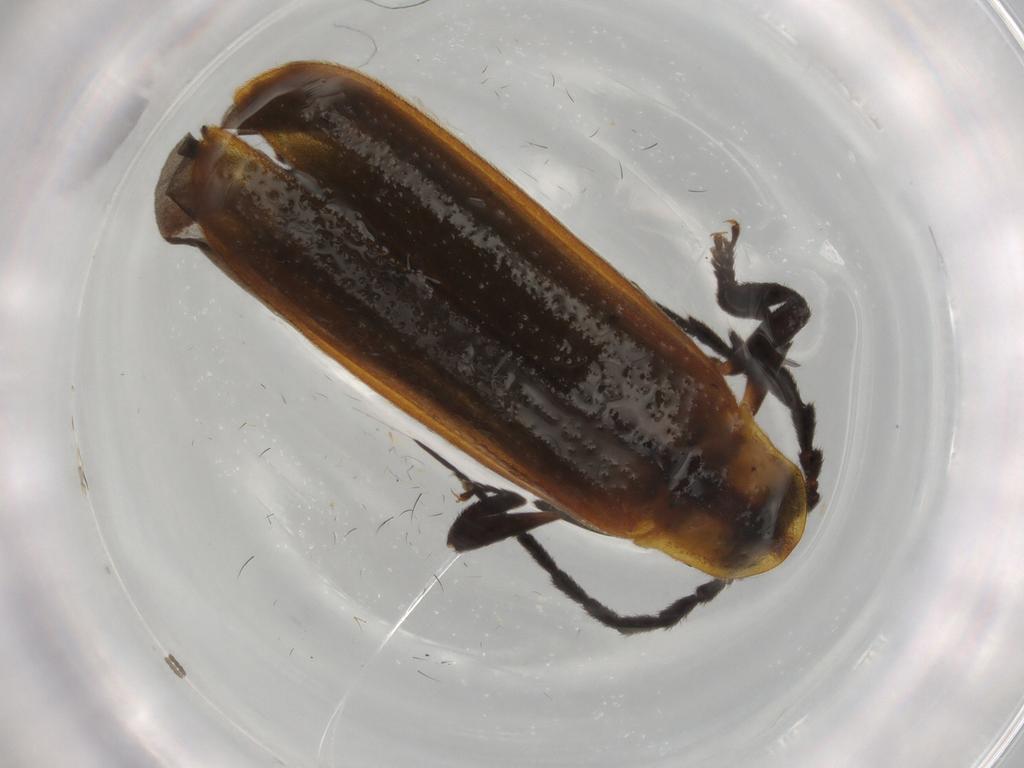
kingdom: Animalia
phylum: Arthropoda
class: Insecta
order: Coleoptera
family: Lycidae
